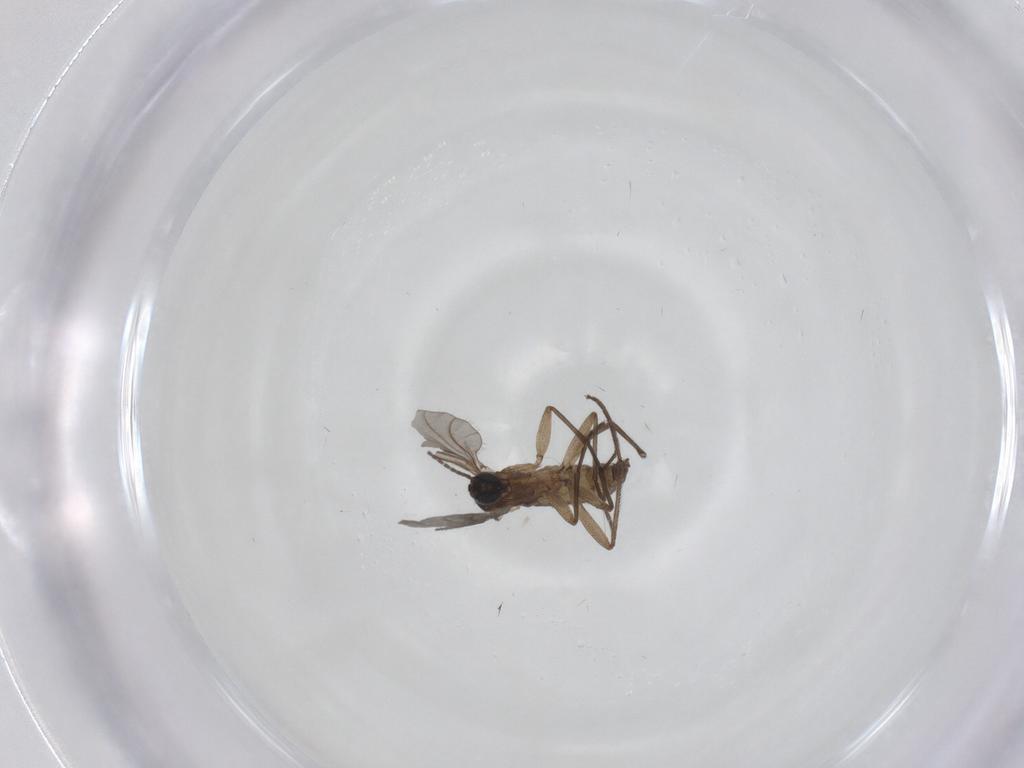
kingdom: Animalia
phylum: Arthropoda
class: Insecta
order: Diptera
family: Sciaridae
